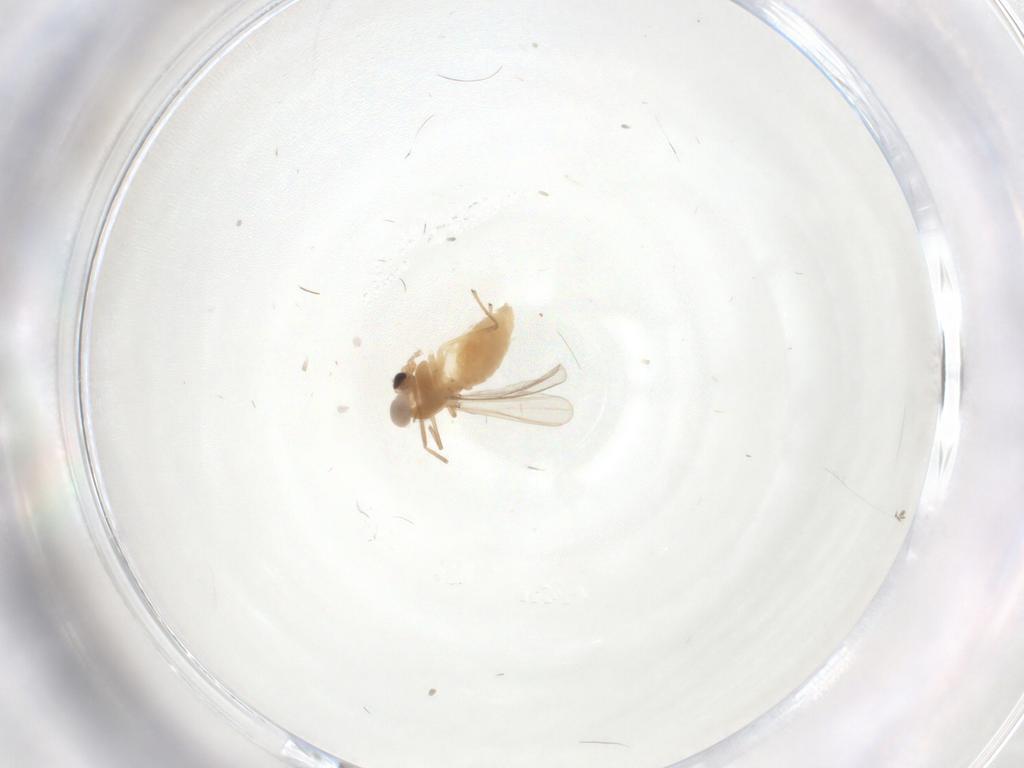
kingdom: Animalia
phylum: Arthropoda
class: Insecta
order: Diptera
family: Chironomidae
